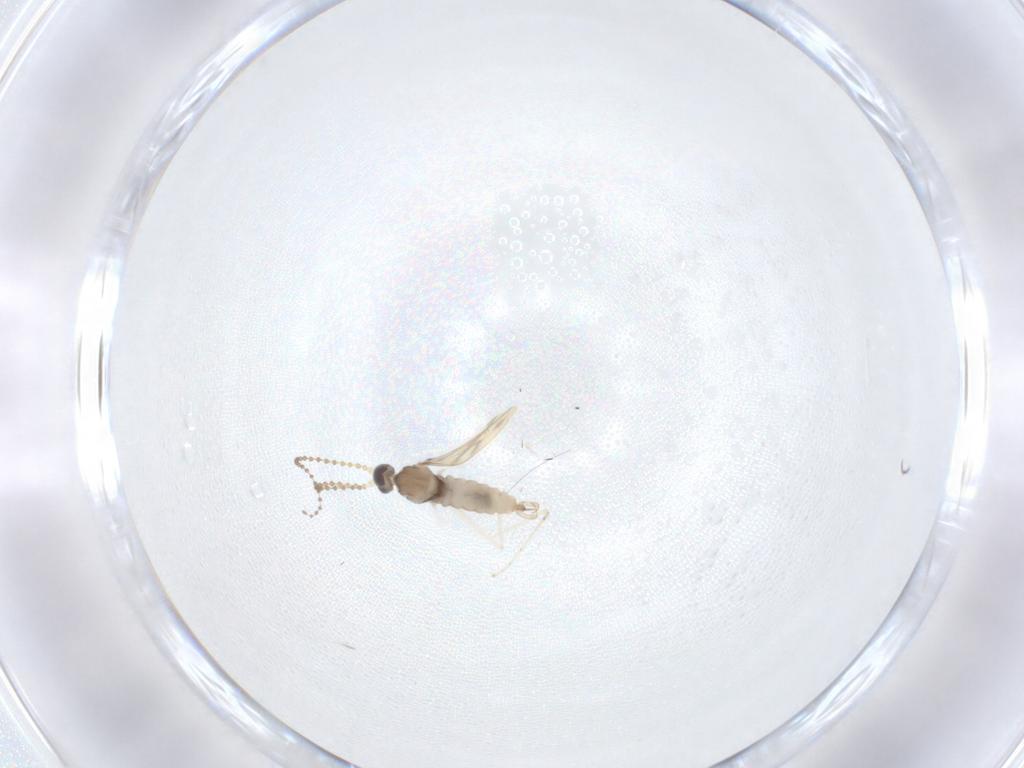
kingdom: Animalia
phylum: Arthropoda
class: Insecta
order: Diptera
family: Cecidomyiidae
